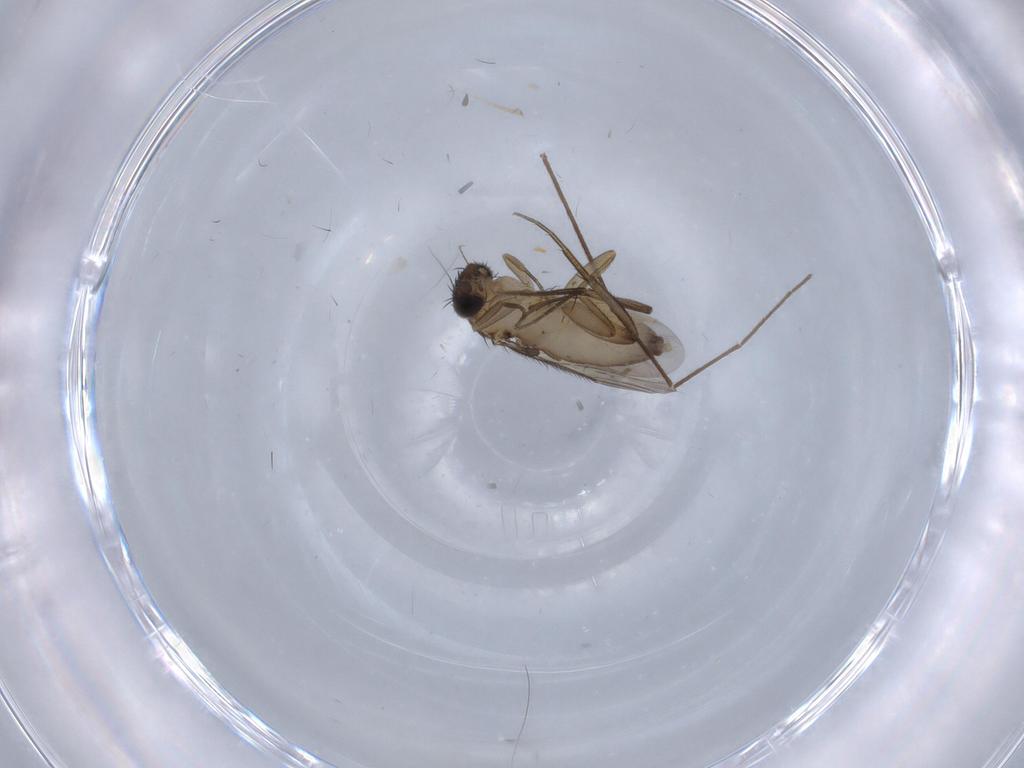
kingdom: Animalia
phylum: Arthropoda
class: Insecta
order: Diptera
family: Phoridae
